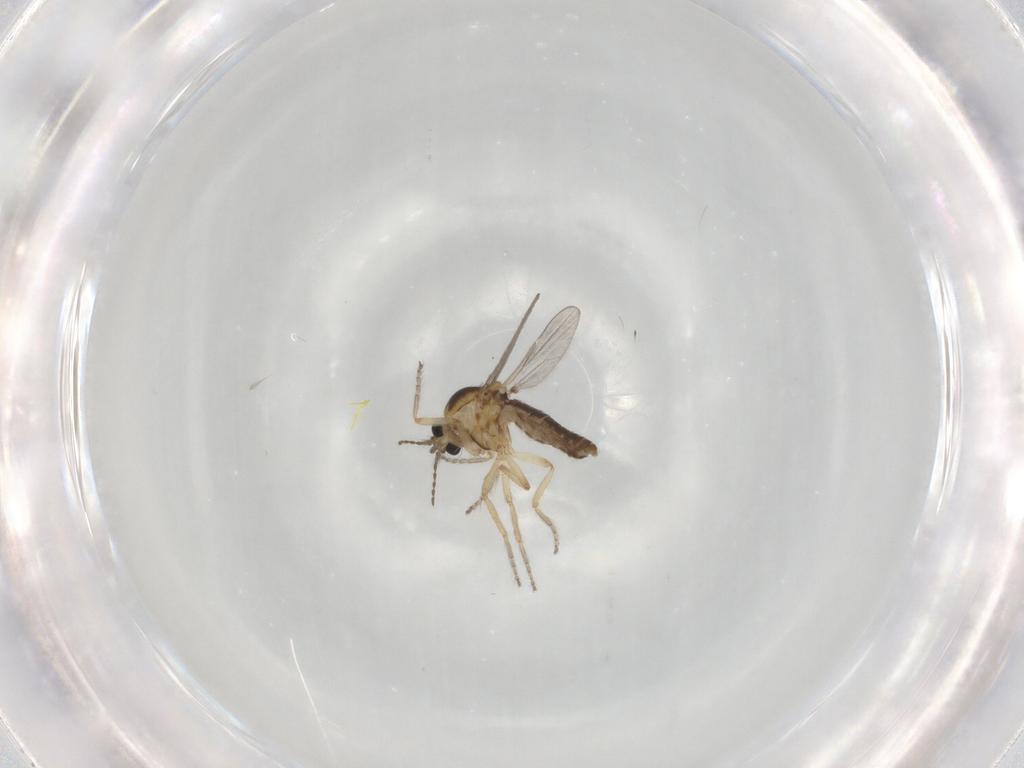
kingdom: Animalia
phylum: Arthropoda
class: Insecta
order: Diptera
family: Ceratopogonidae
